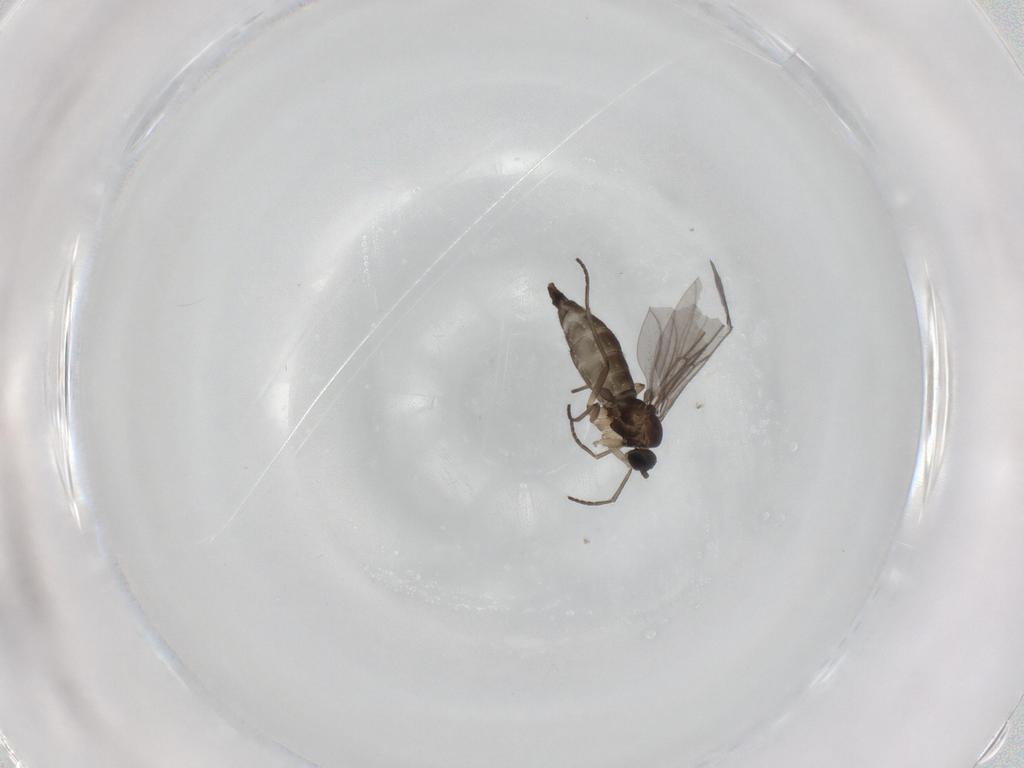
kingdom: Animalia
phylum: Arthropoda
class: Insecta
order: Diptera
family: Sciaridae
